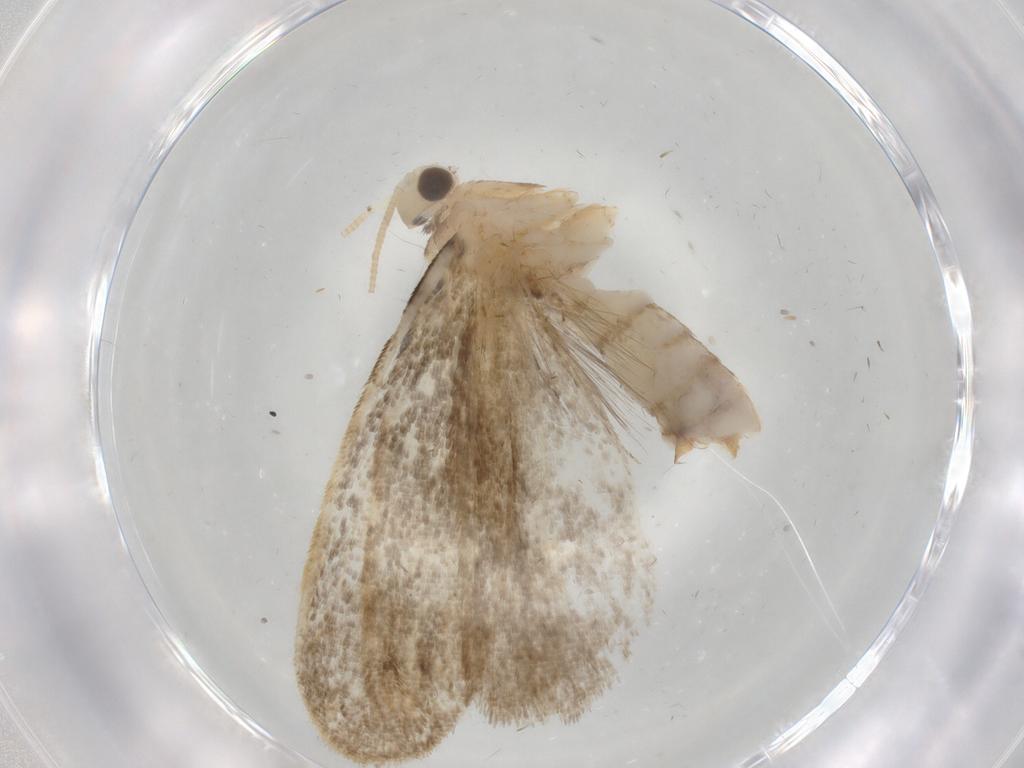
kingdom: Animalia
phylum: Arthropoda
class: Insecta
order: Lepidoptera
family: Dryadaulidae
